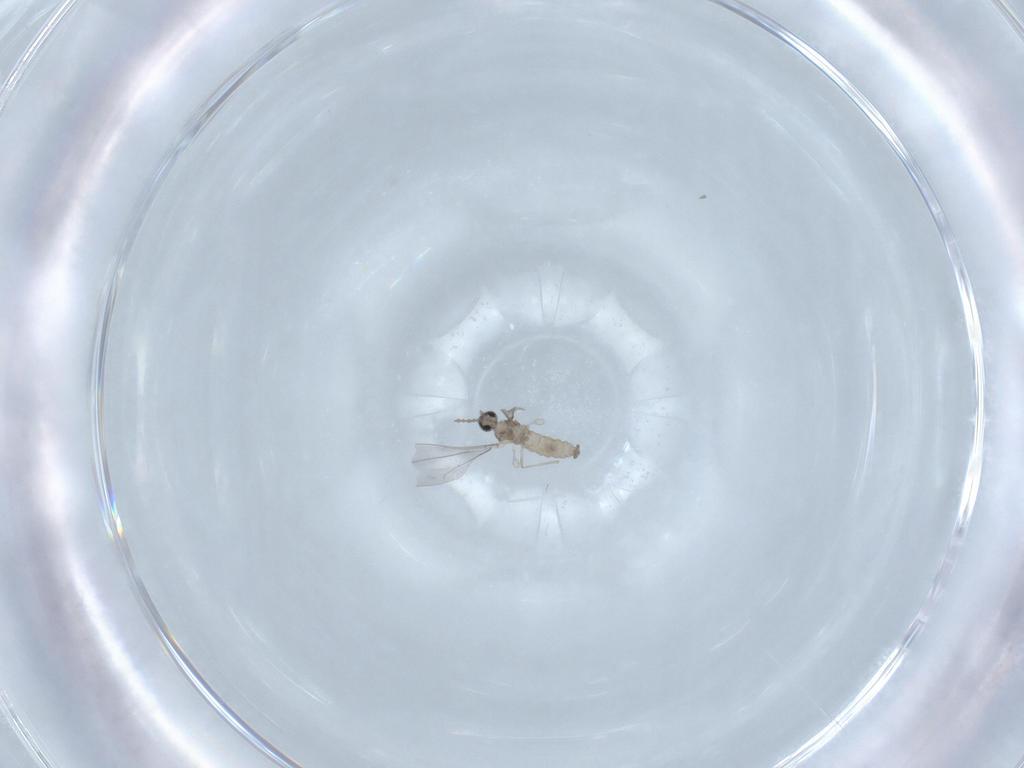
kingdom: Animalia
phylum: Arthropoda
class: Insecta
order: Diptera
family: Cecidomyiidae
